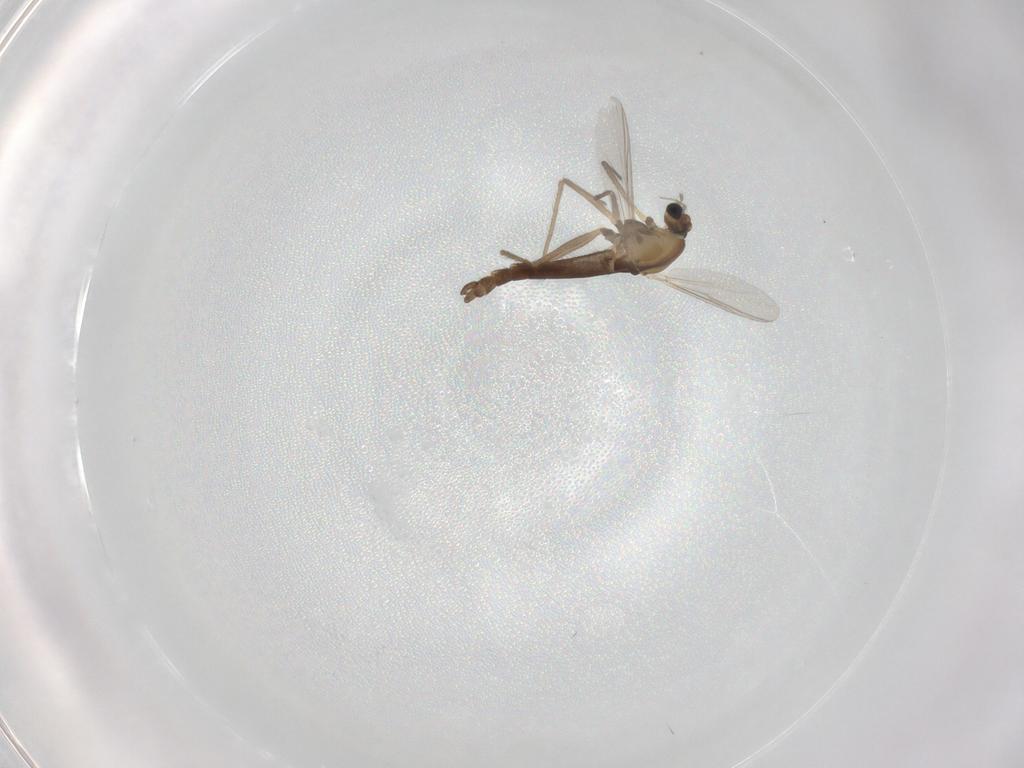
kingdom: Animalia
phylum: Arthropoda
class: Insecta
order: Diptera
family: Chironomidae
